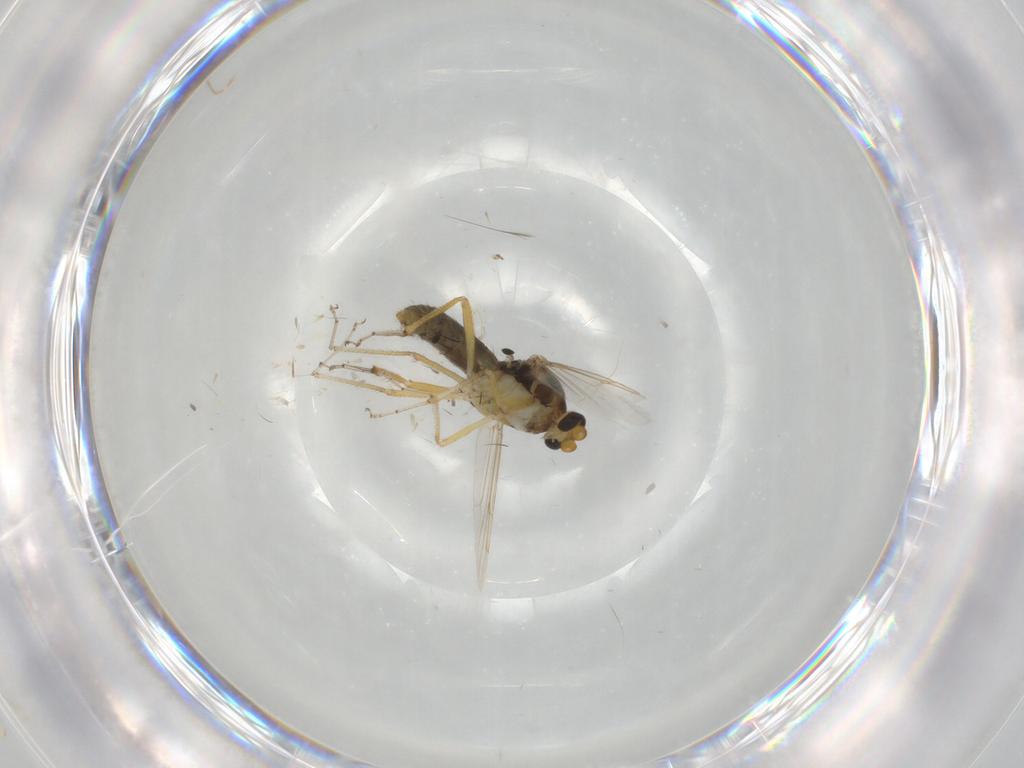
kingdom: Animalia
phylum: Arthropoda
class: Insecta
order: Diptera
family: Ceratopogonidae
